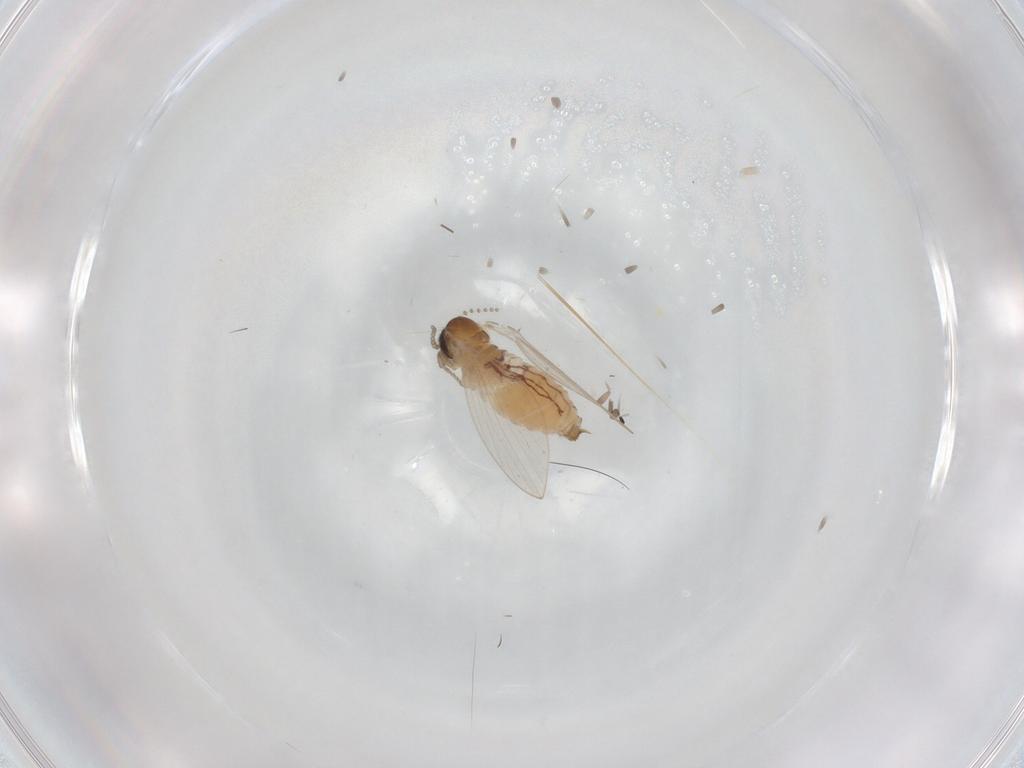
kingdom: Animalia
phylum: Arthropoda
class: Insecta
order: Diptera
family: Psychodidae
